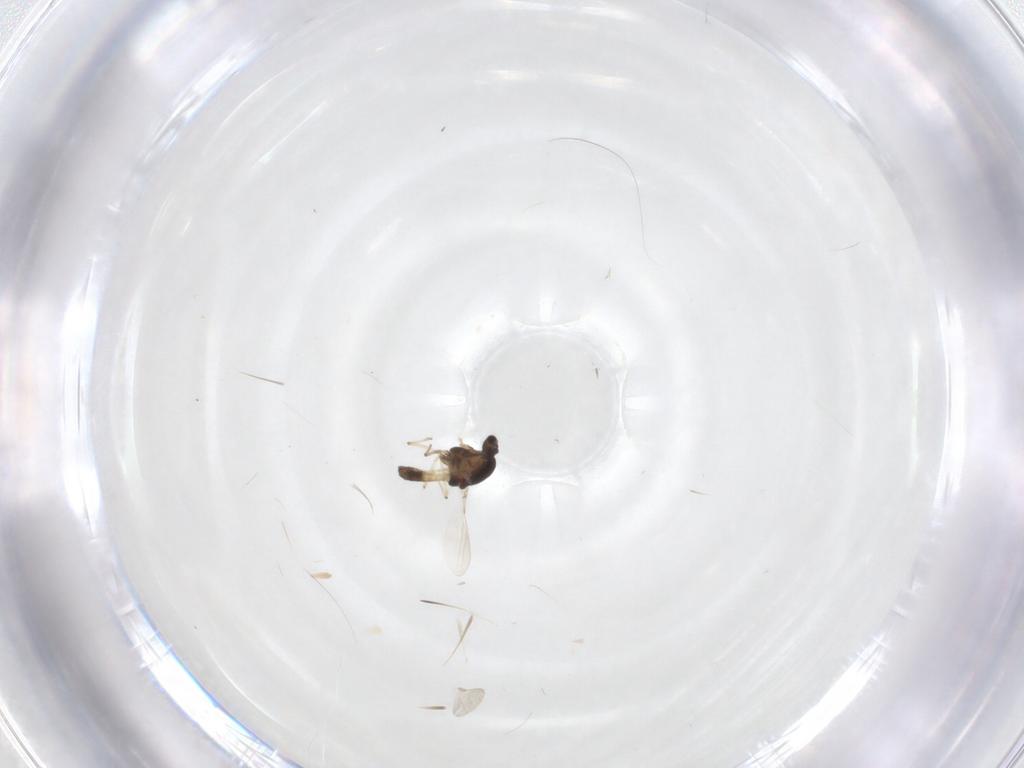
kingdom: Animalia
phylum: Arthropoda
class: Insecta
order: Diptera
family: Chironomidae
